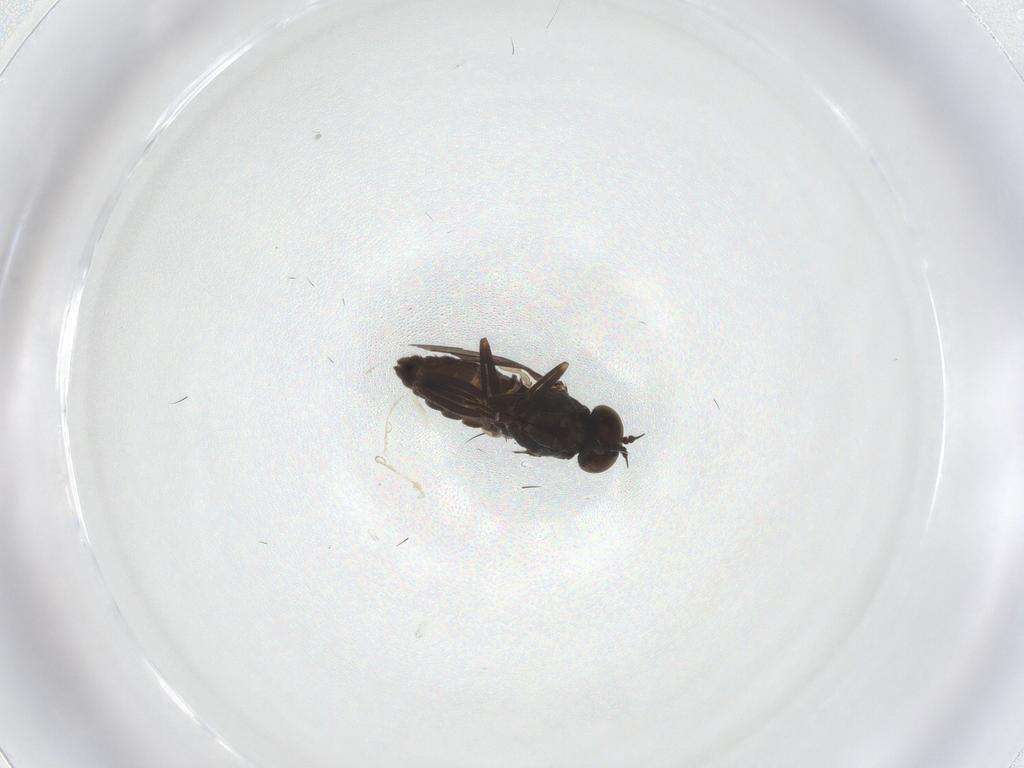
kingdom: Animalia
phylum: Arthropoda
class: Insecta
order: Diptera
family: Dolichopodidae
